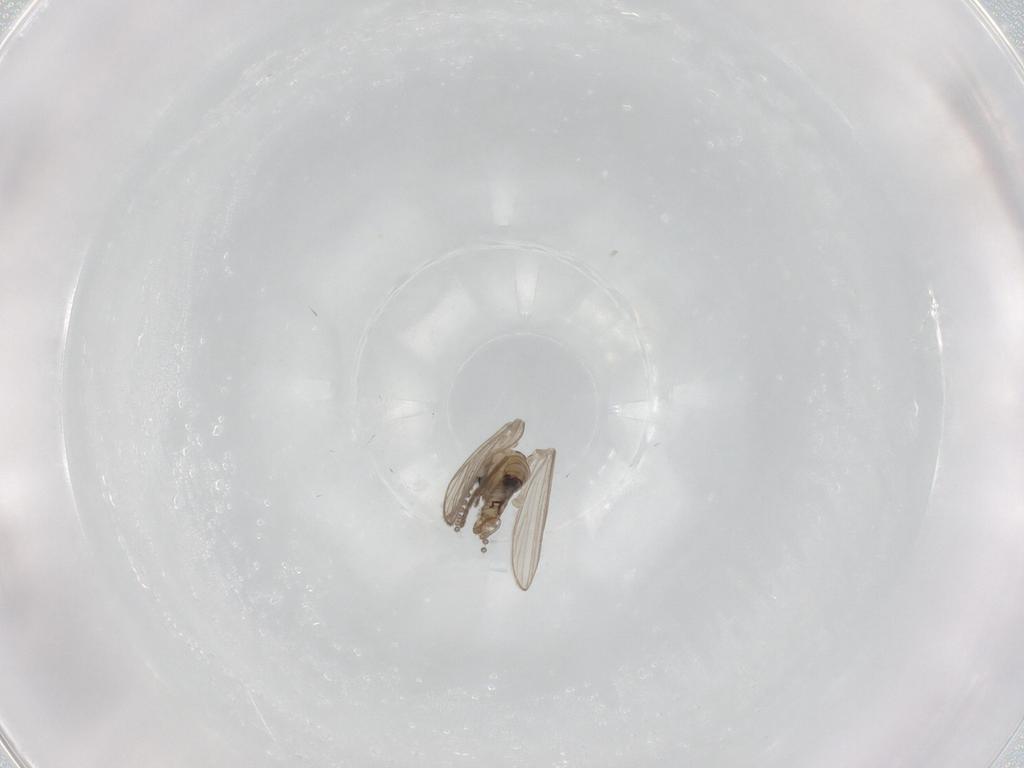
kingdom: Animalia
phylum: Arthropoda
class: Insecta
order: Diptera
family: Psychodidae
